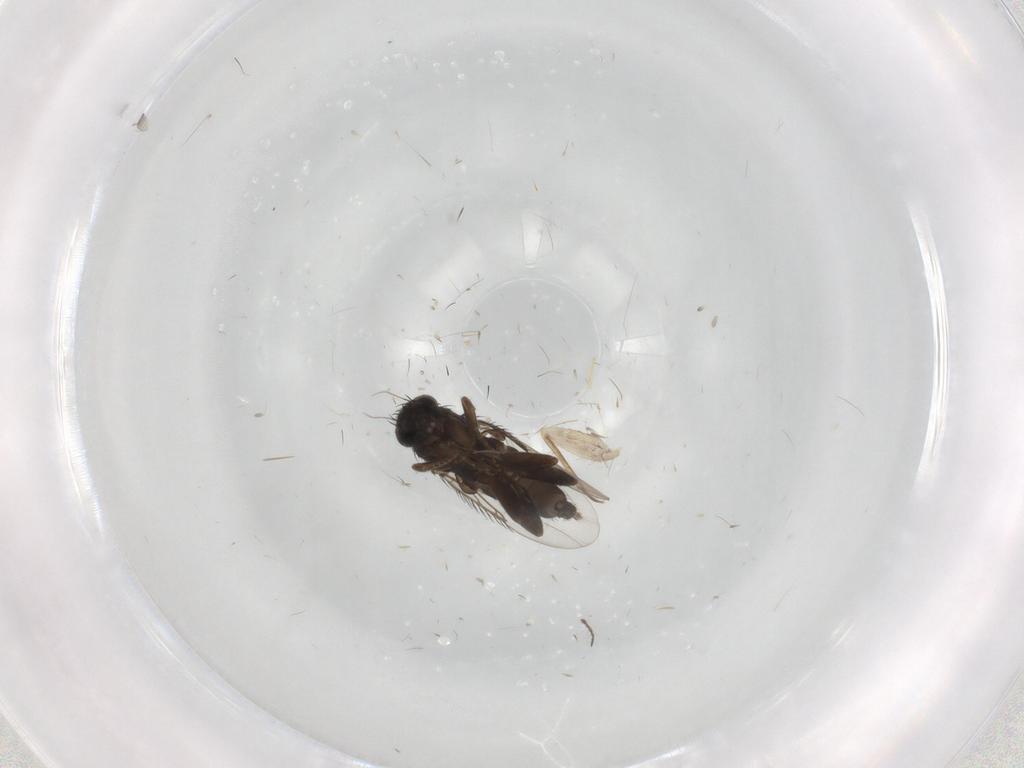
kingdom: Animalia
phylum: Arthropoda
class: Insecta
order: Diptera
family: Phoridae
